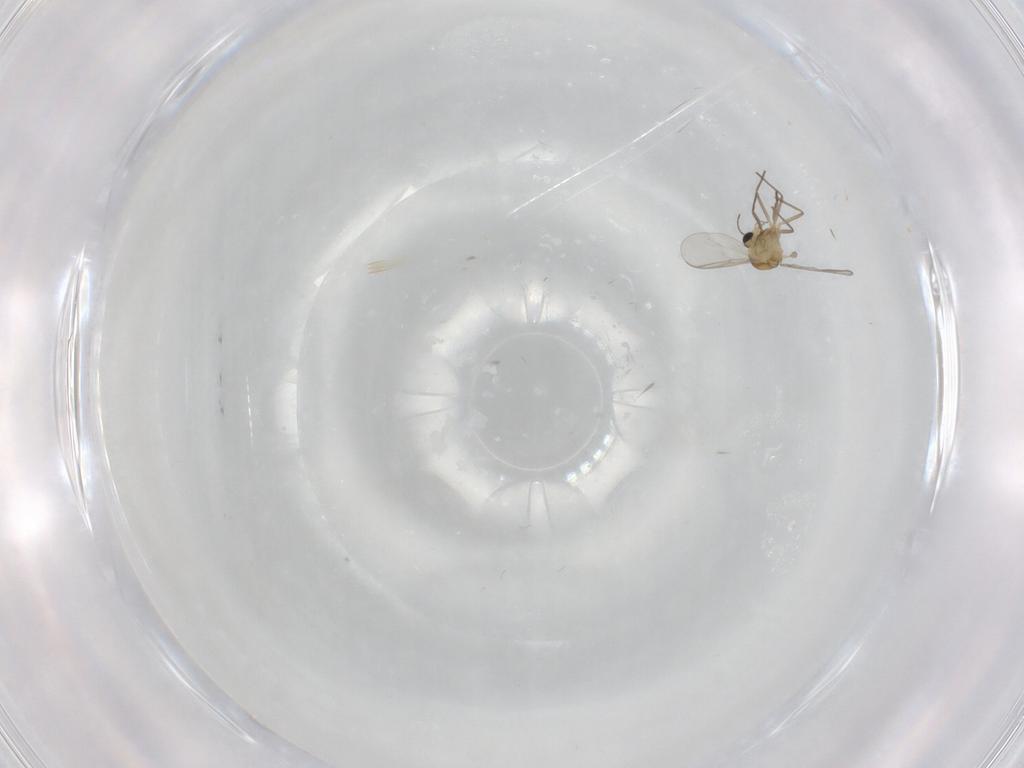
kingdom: Animalia
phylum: Arthropoda
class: Insecta
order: Diptera
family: Chironomidae
